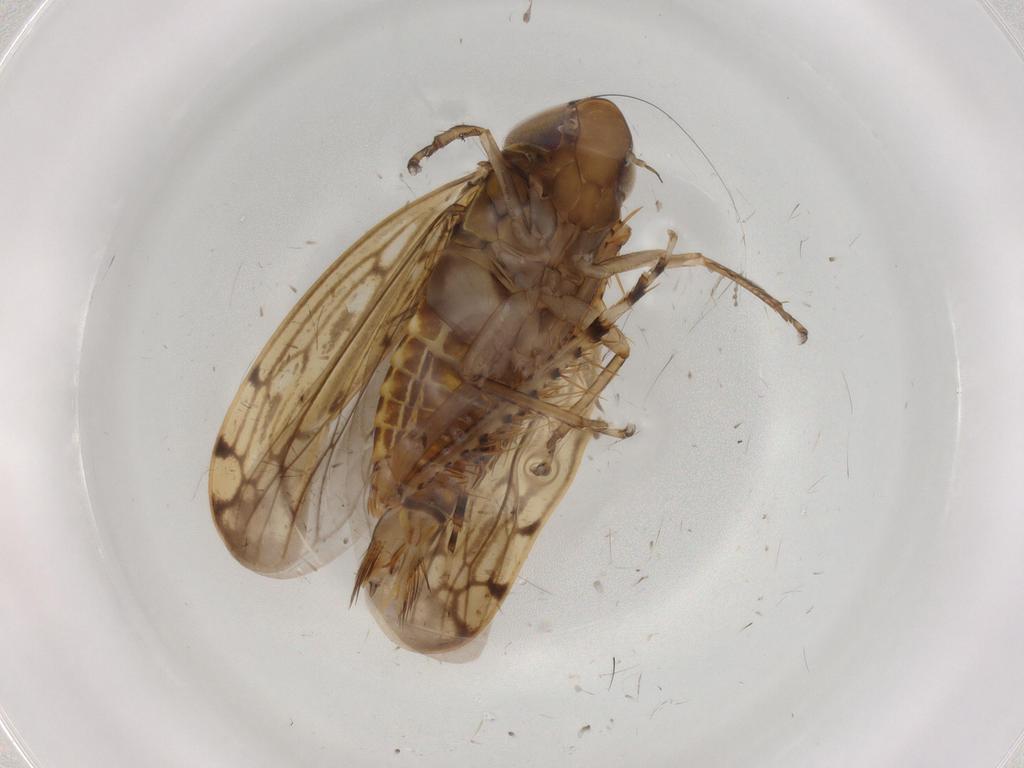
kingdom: Animalia
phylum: Arthropoda
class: Insecta
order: Hemiptera
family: Cicadellidae
